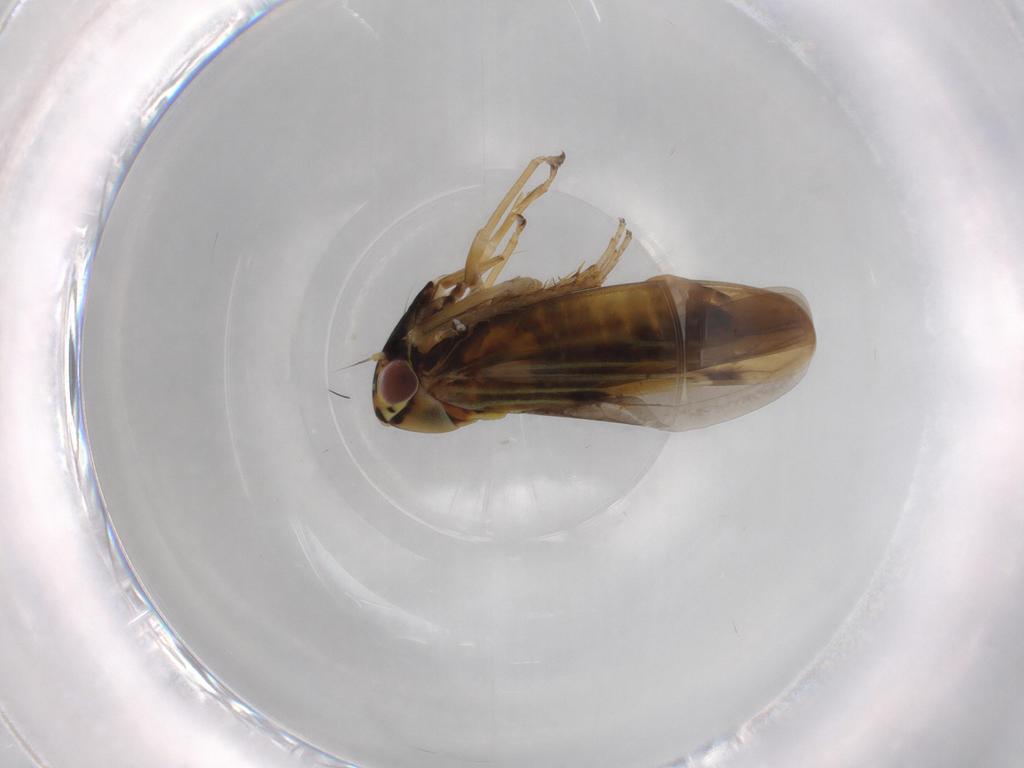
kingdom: Animalia
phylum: Arthropoda
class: Insecta
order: Hemiptera
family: Cicadellidae
